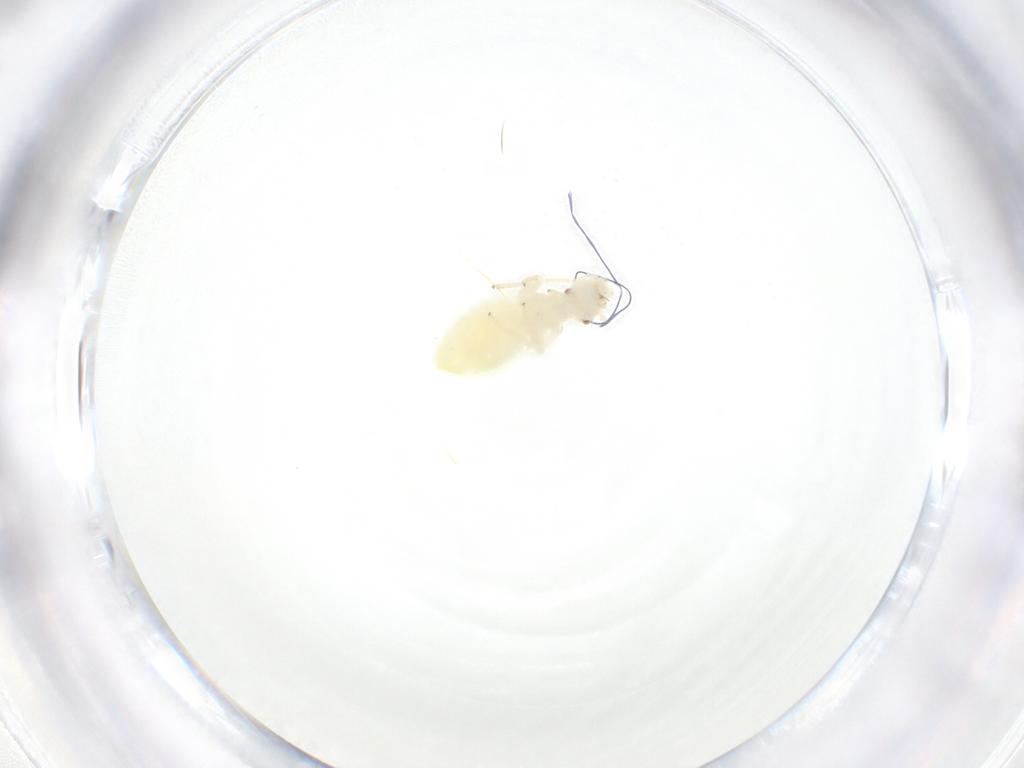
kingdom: Animalia
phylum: Arthropoda
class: Insecta
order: Psocodea
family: Caeciliusidae
